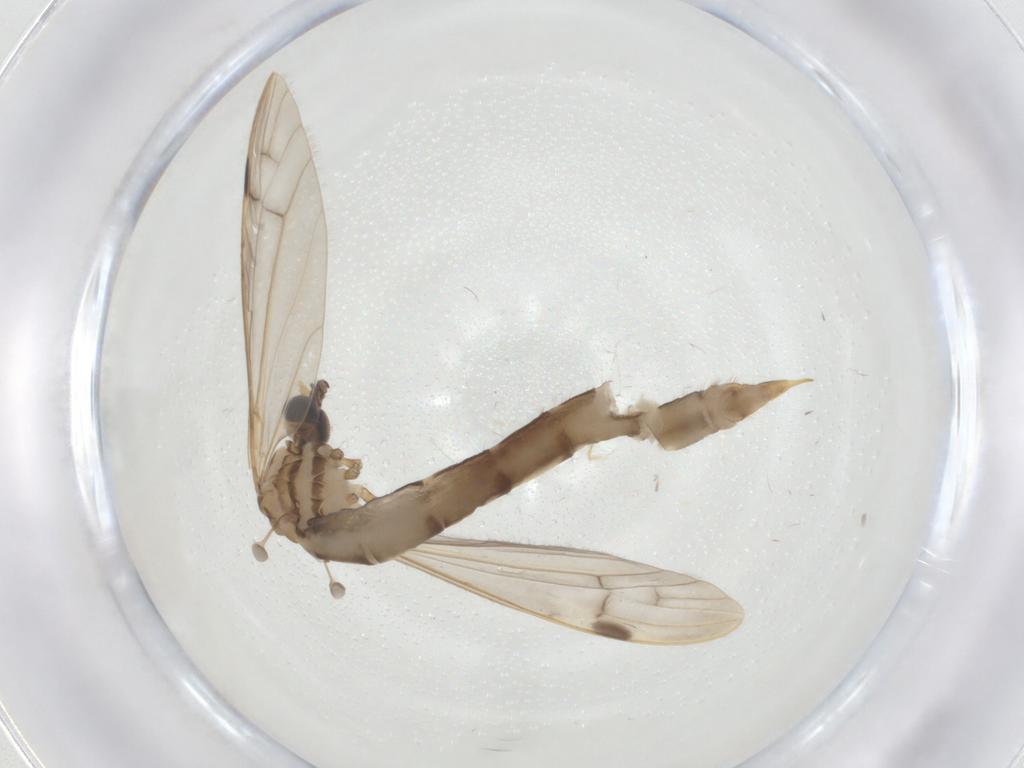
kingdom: Animalia
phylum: Arthropoda
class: Insecta
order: Diptera
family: Limoniidae
